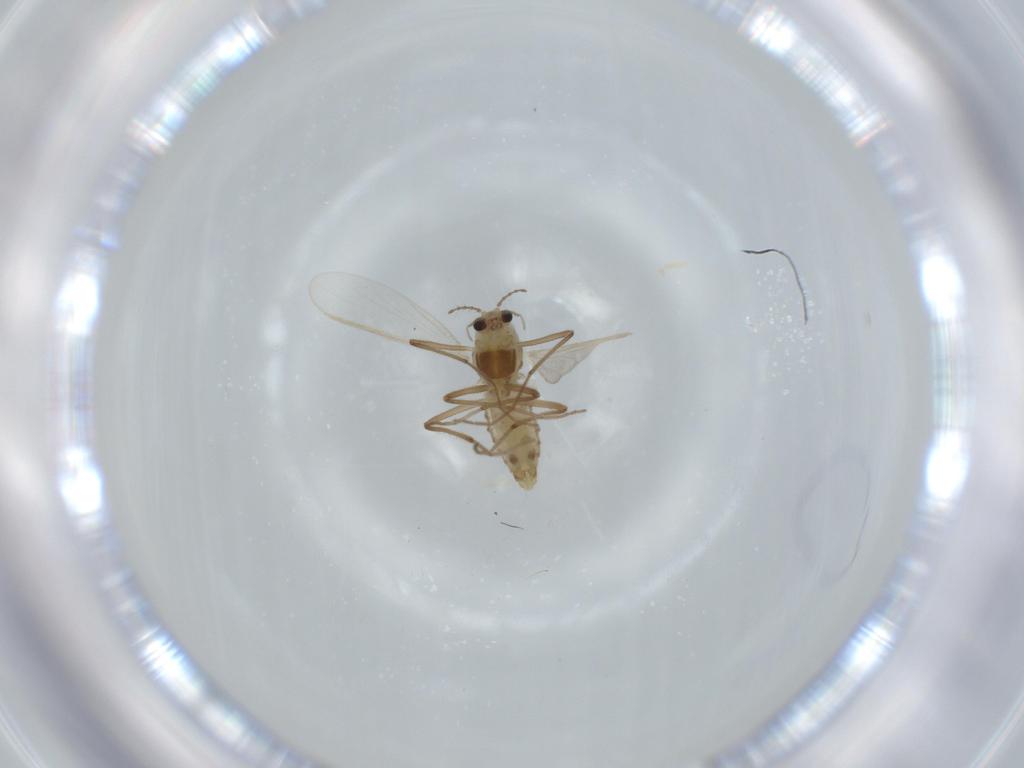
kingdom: Animalia
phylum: Arthropoda
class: Insecta
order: Diptera
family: Chironomidae
